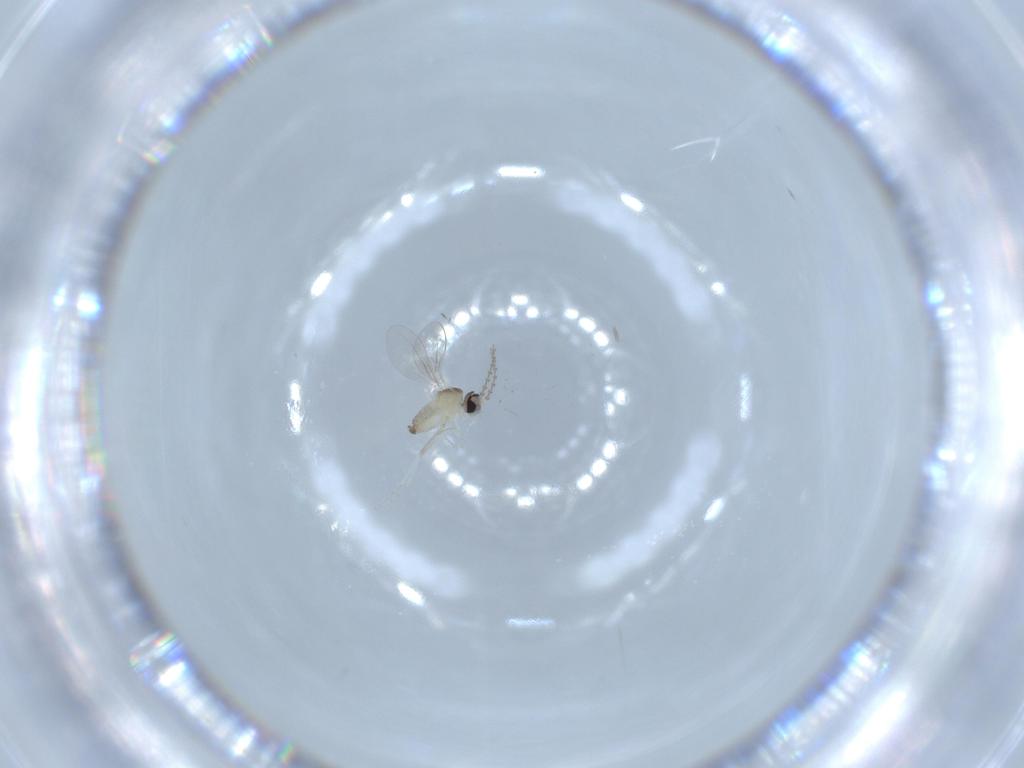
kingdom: Animalia
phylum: Arthropoda
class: Insecta
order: Diptera
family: Cecidomyiidae
